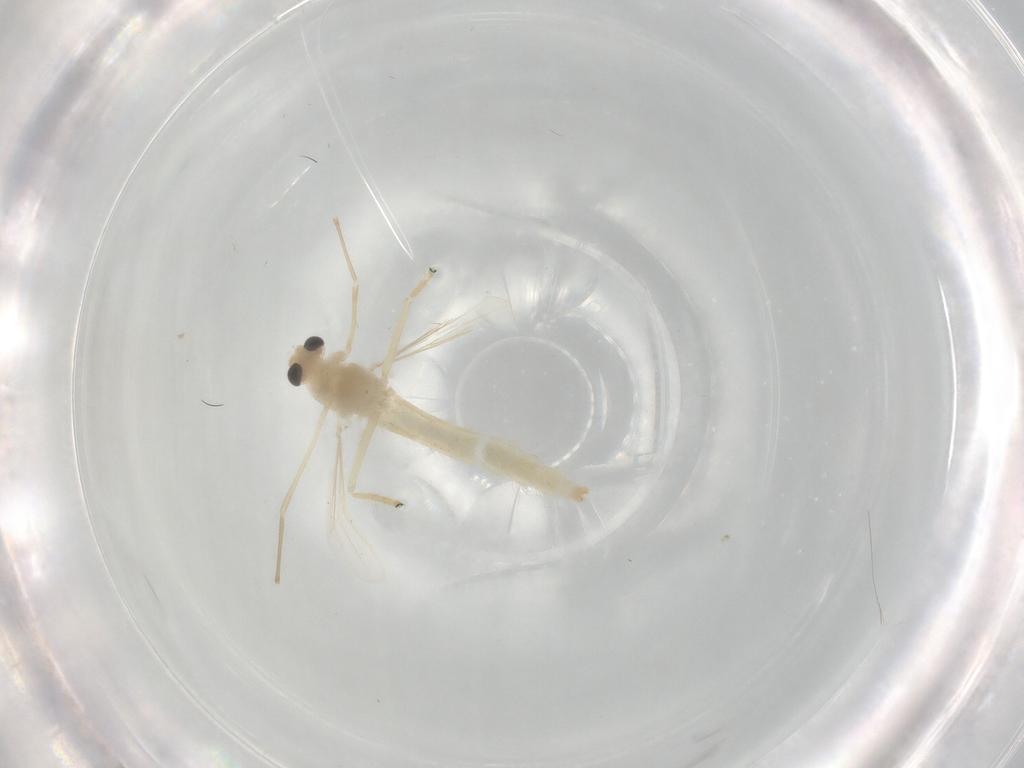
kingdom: Animalia
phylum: Arthropoda
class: Insecta
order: Diptera
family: Chironomidae
